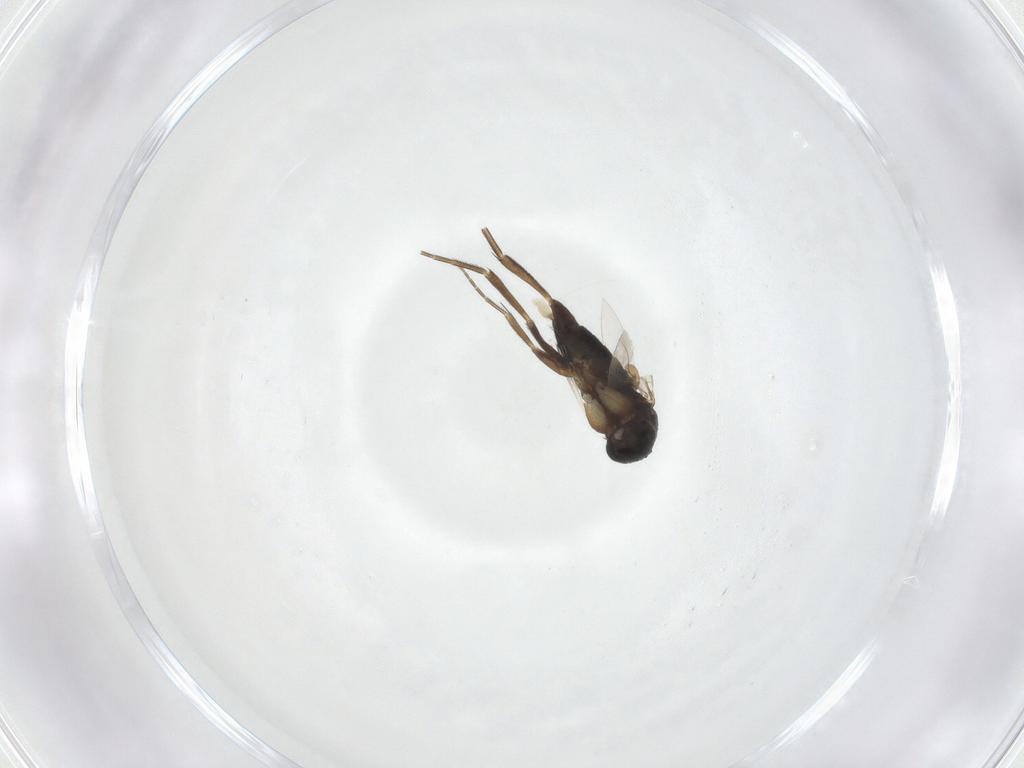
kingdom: Animalia
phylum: Arthropoda
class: Insecta
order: Diptera
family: Phoridae
